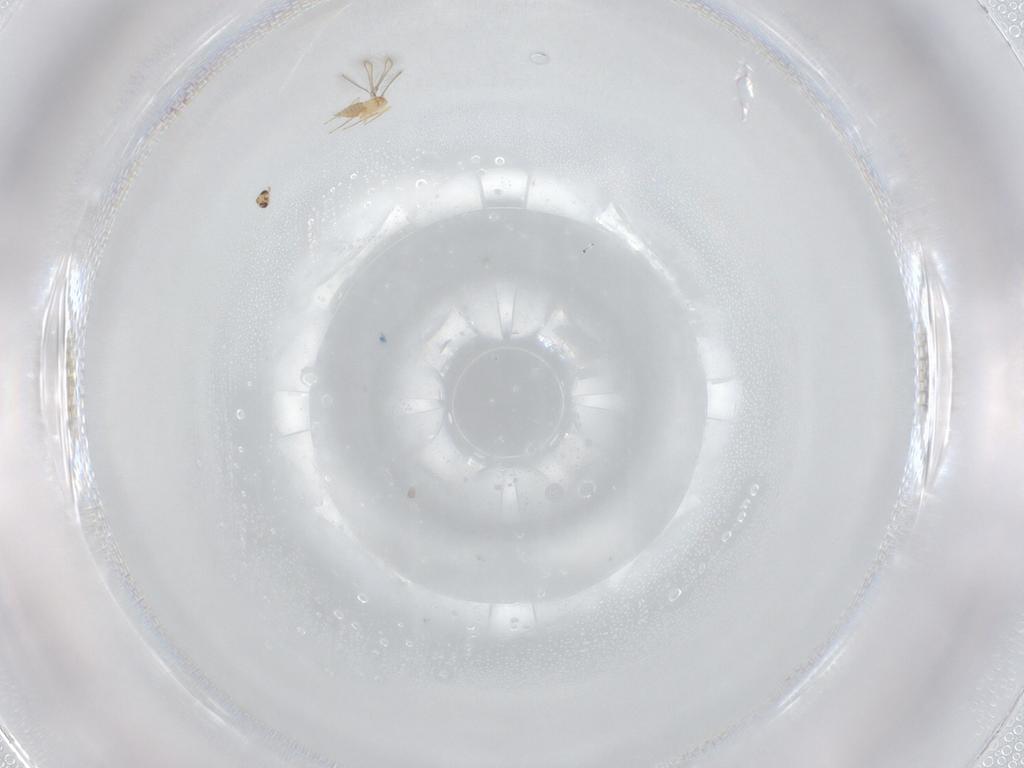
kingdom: Animalia
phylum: Arthropoda
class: Insecta
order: Hymenoptera
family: Mymaridae
